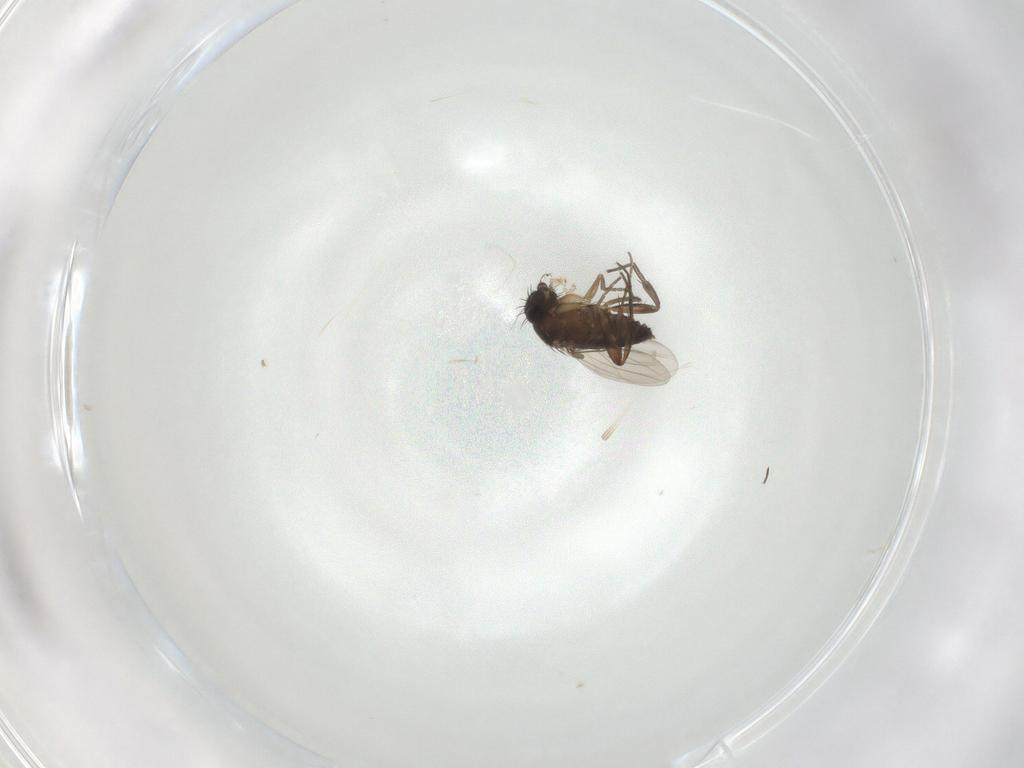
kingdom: Animalia
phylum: Arthropoda
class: Insecta
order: Diptera
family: Phoridae
